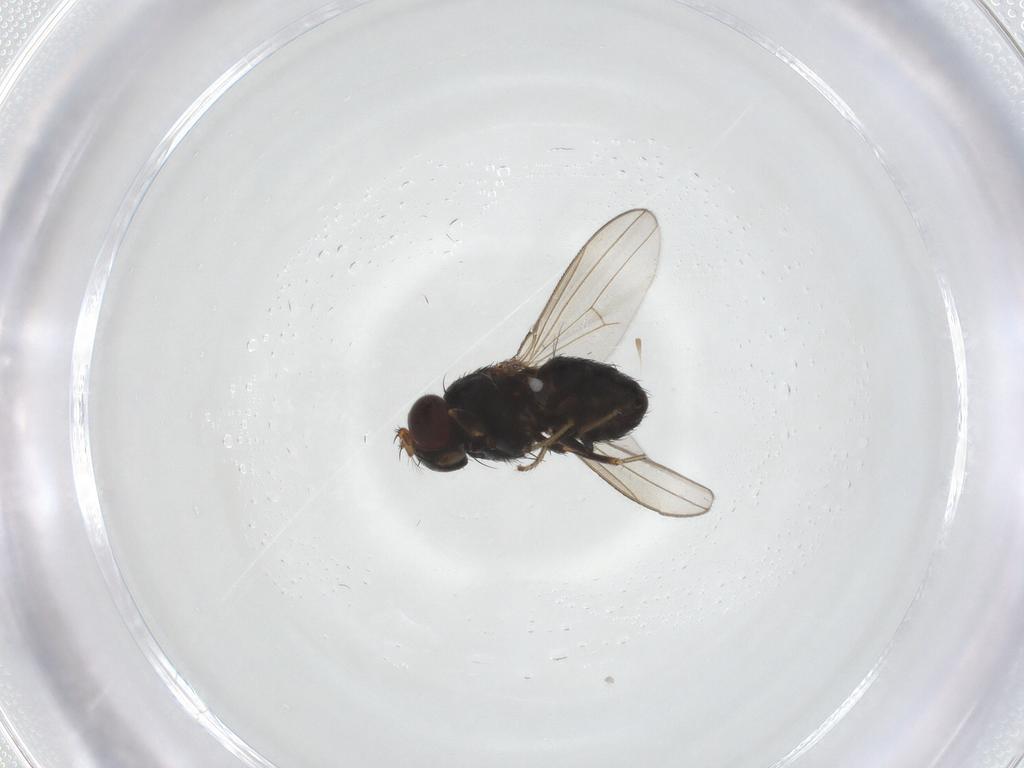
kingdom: Animalia
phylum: Arthropoda
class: Insecta
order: Diptera
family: Ephydridae
